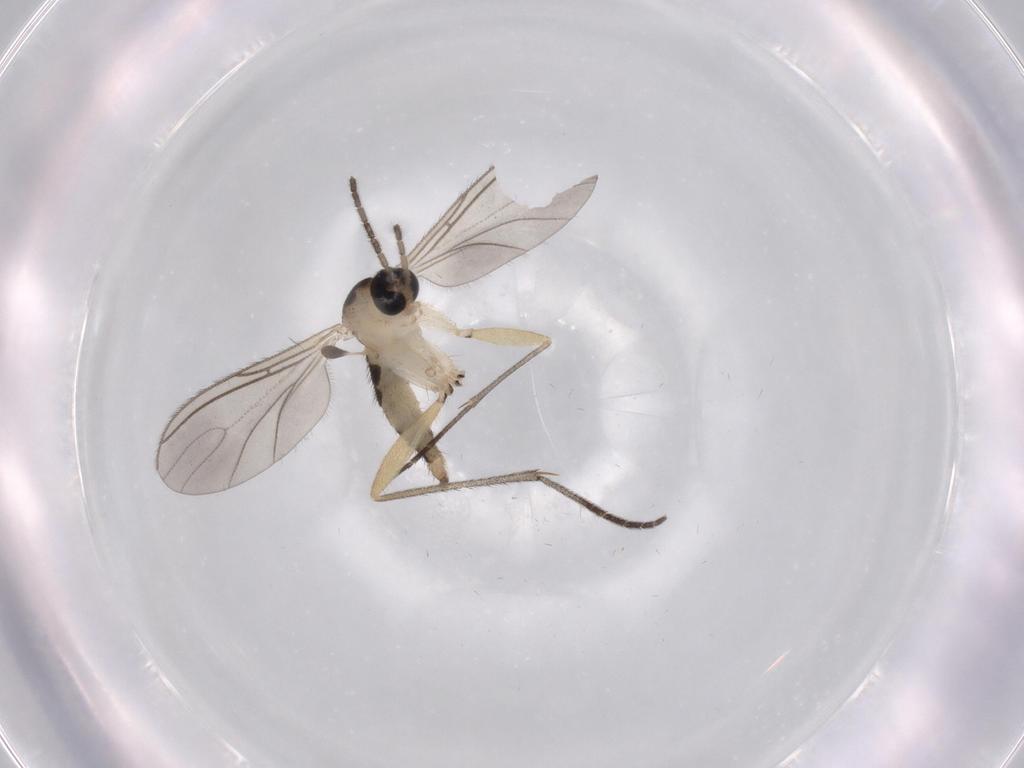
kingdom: Animalia
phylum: Arthropoda
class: Insecta
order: Diptera
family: Sciaridae
